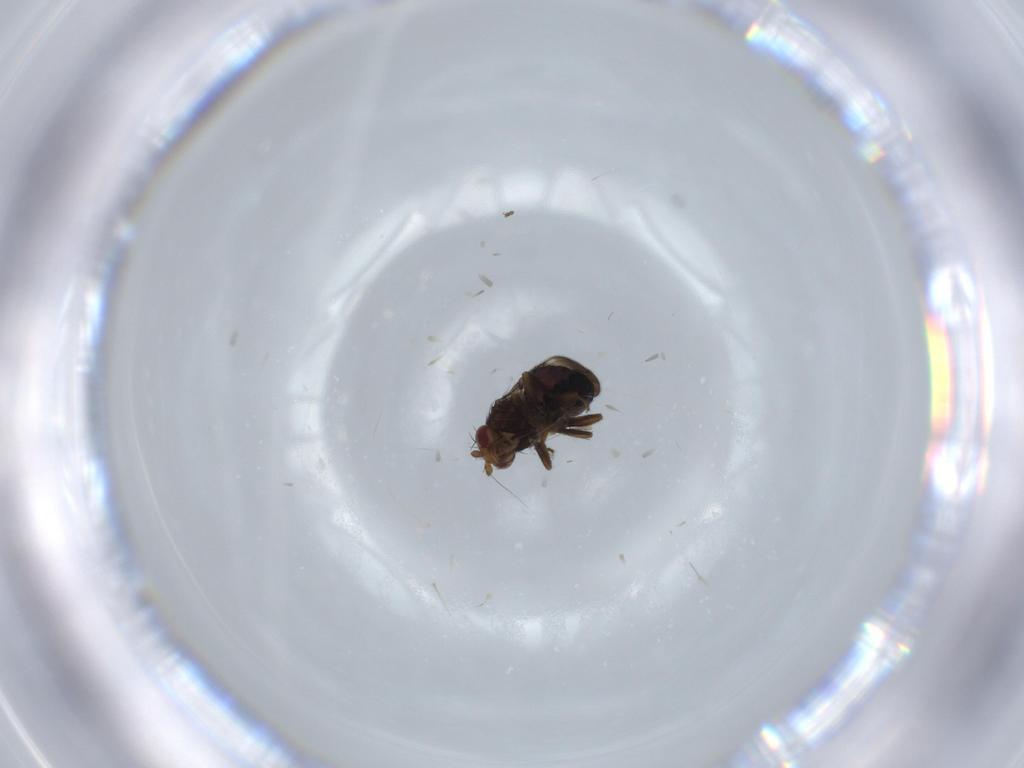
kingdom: Animalia
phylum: Arthropoda
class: Insecta
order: Diptera
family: Sphaeroceridae
